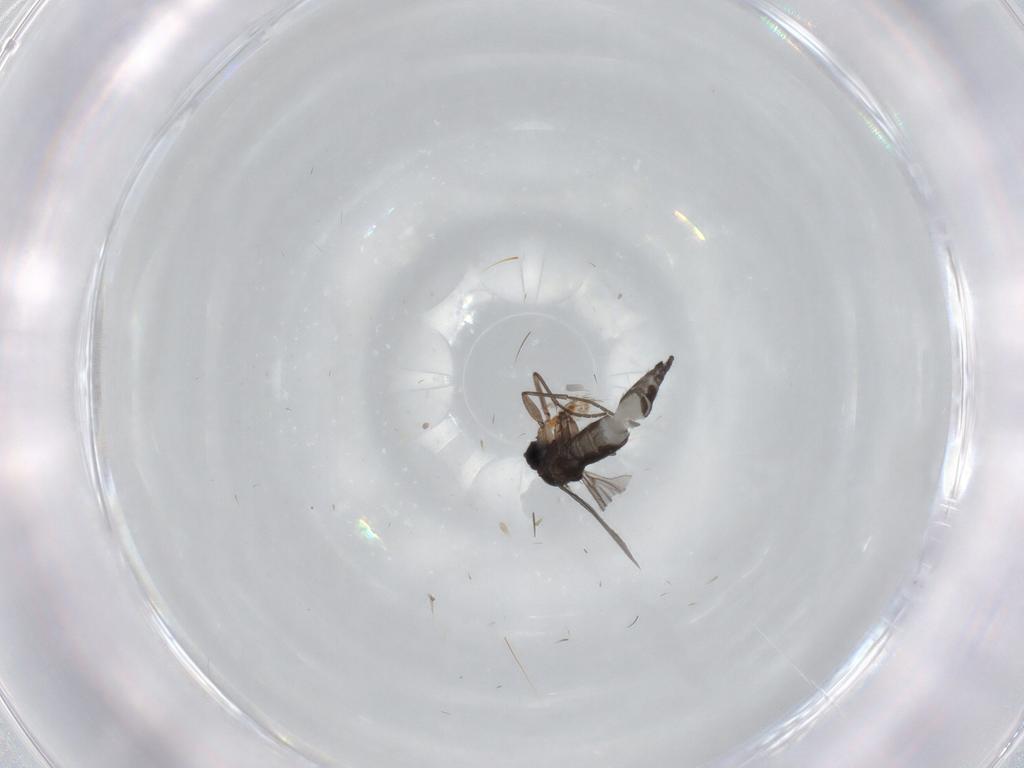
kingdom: Animalia
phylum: Arthropoda
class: Insecta
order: Diptera
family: Sciaridae
